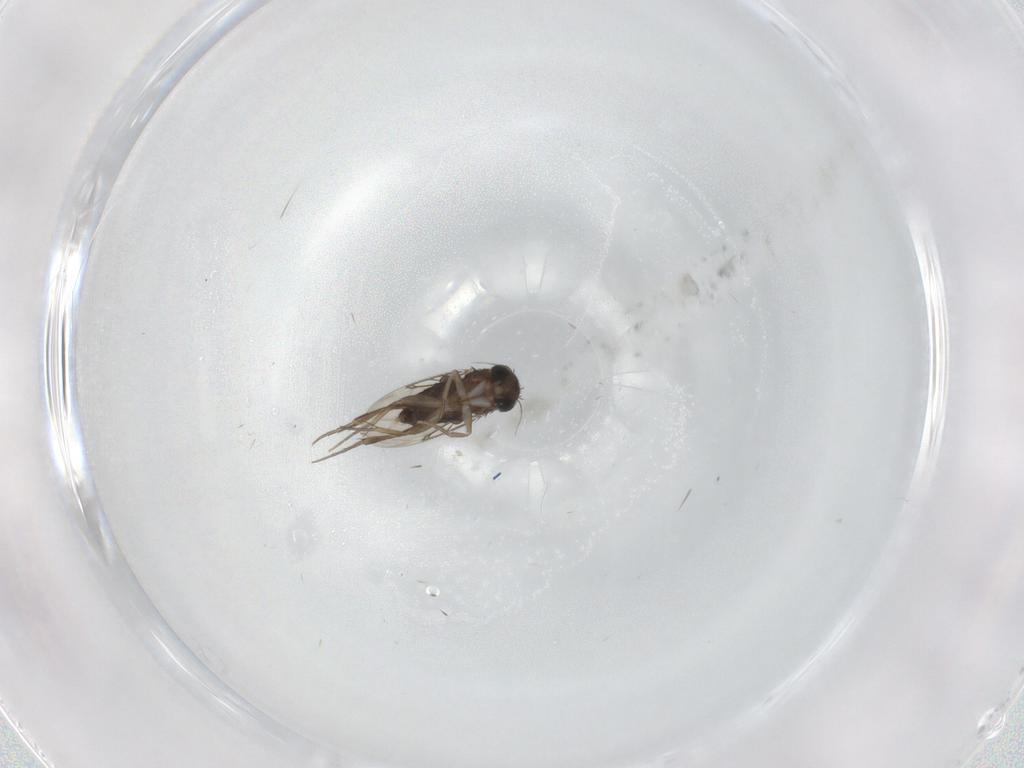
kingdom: Animalia
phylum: Arthropoda
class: Insecta
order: Diptera
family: Phoridae
